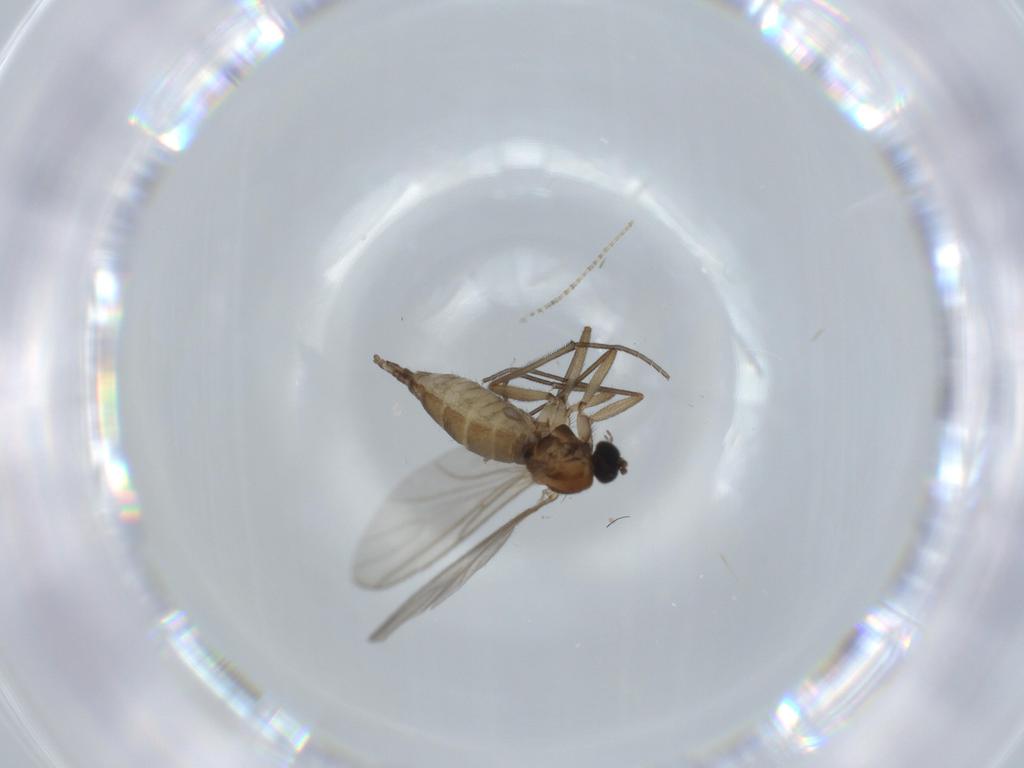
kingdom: Animalia
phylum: Arthropoda
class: Insecta
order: Diptera
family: Sciaridae
